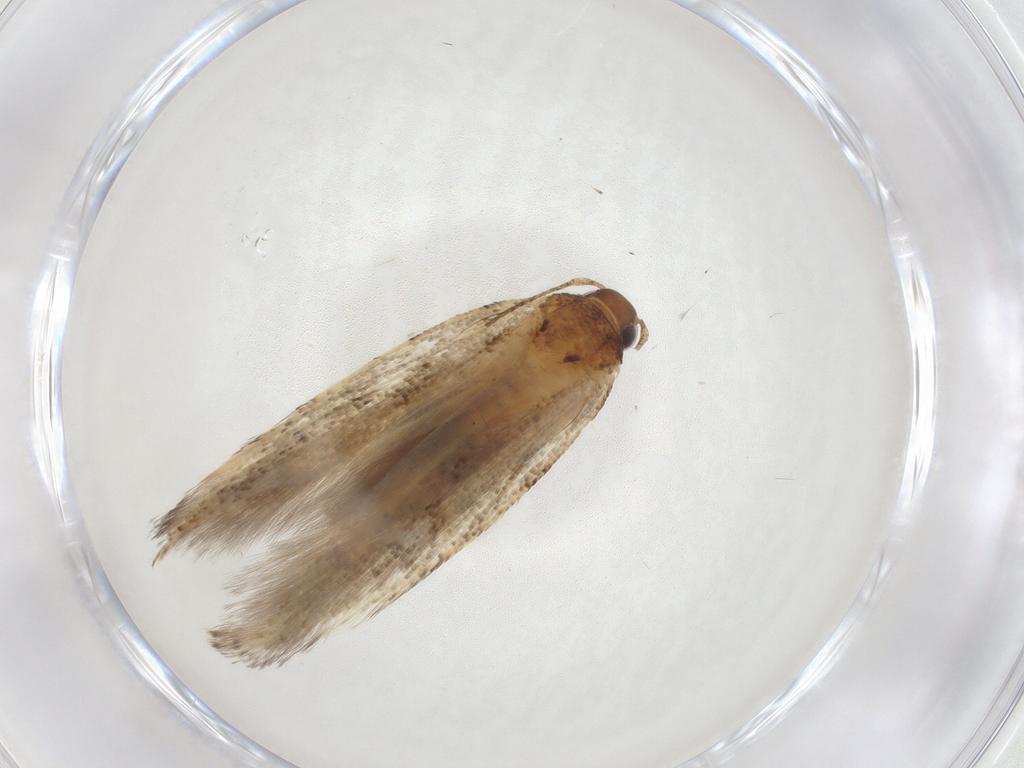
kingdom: Animalia
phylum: Arthropoda
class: Insecta
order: Lepidoptera
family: Gelechiidae
